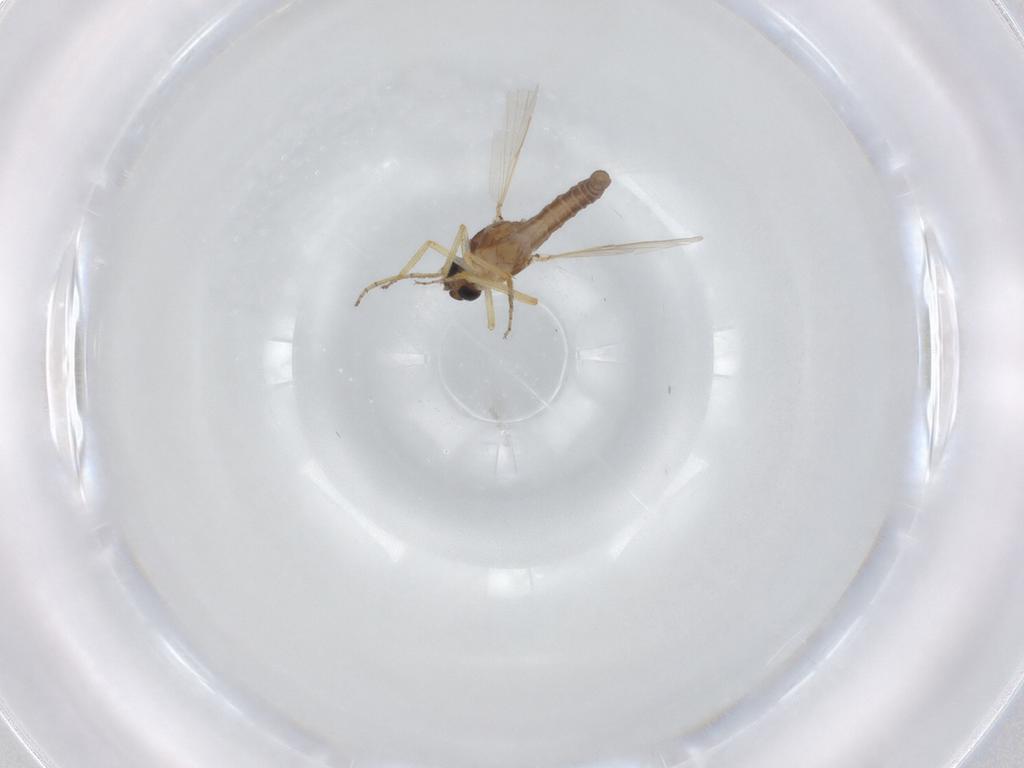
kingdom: Animalia
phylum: Arthropoda
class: Insecta
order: Diptera
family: Ceratopogonidae
